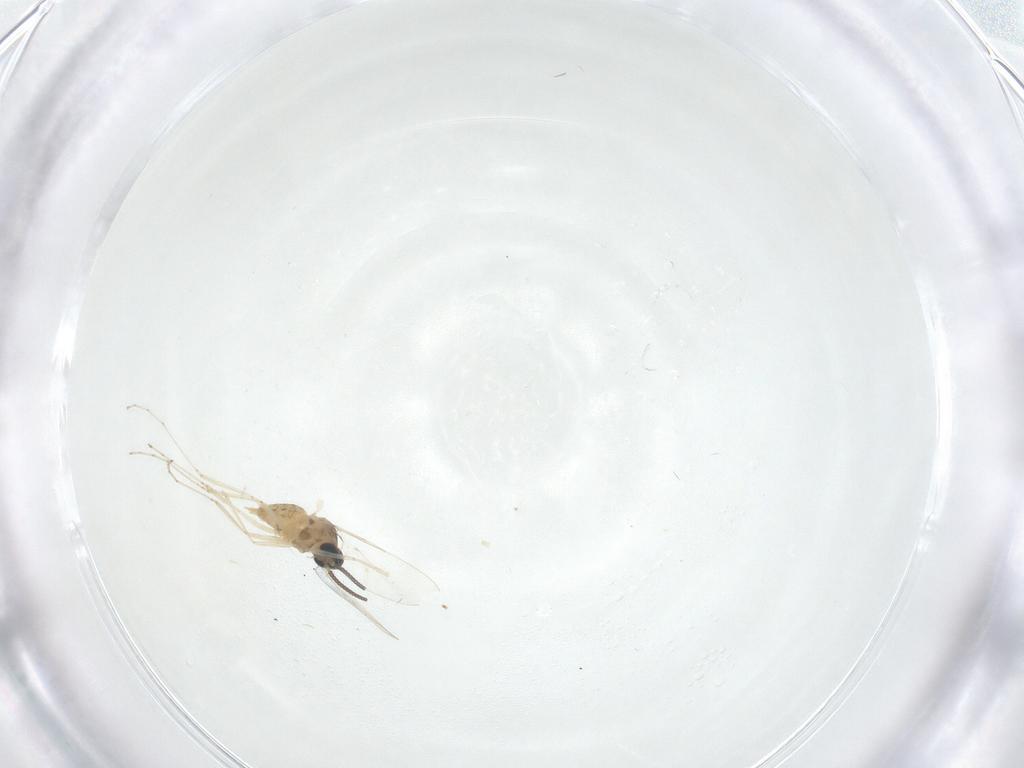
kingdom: Animalia
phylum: Arthropoda
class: Insecta
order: Diptera
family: Cecidomyiidae
